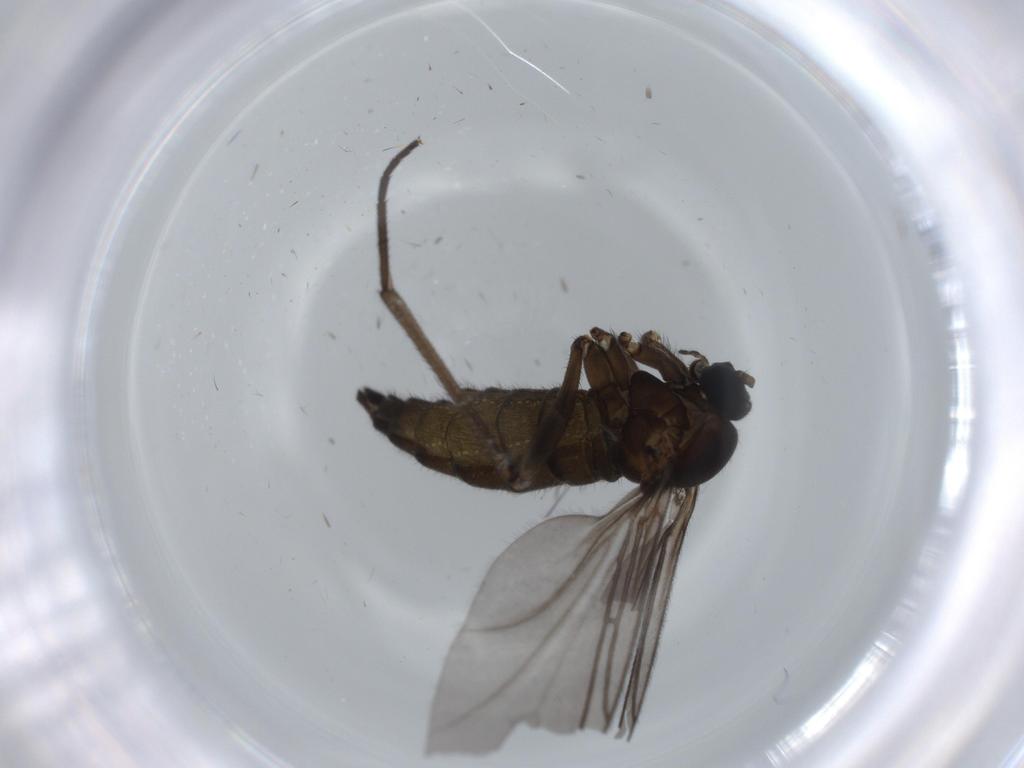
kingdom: Animalia
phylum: Arthropoda
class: Insecta
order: Diptera
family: Sciaridae
